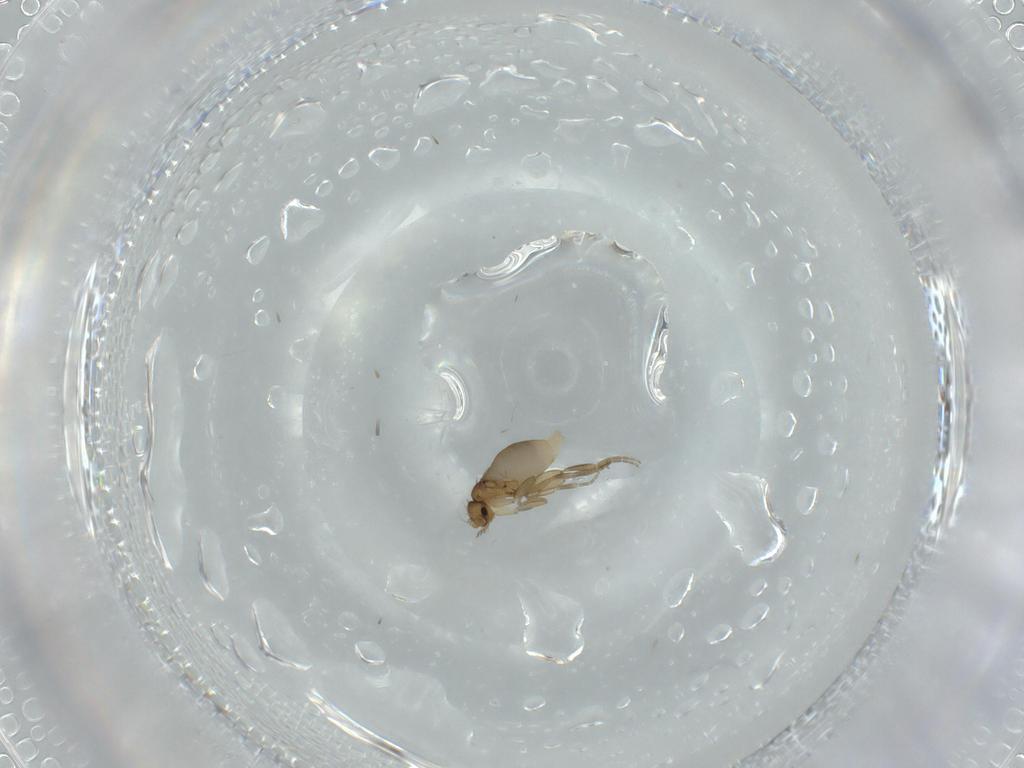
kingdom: Animalia
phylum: Arthropoda
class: Insecta
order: Diptera
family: Phoridae
